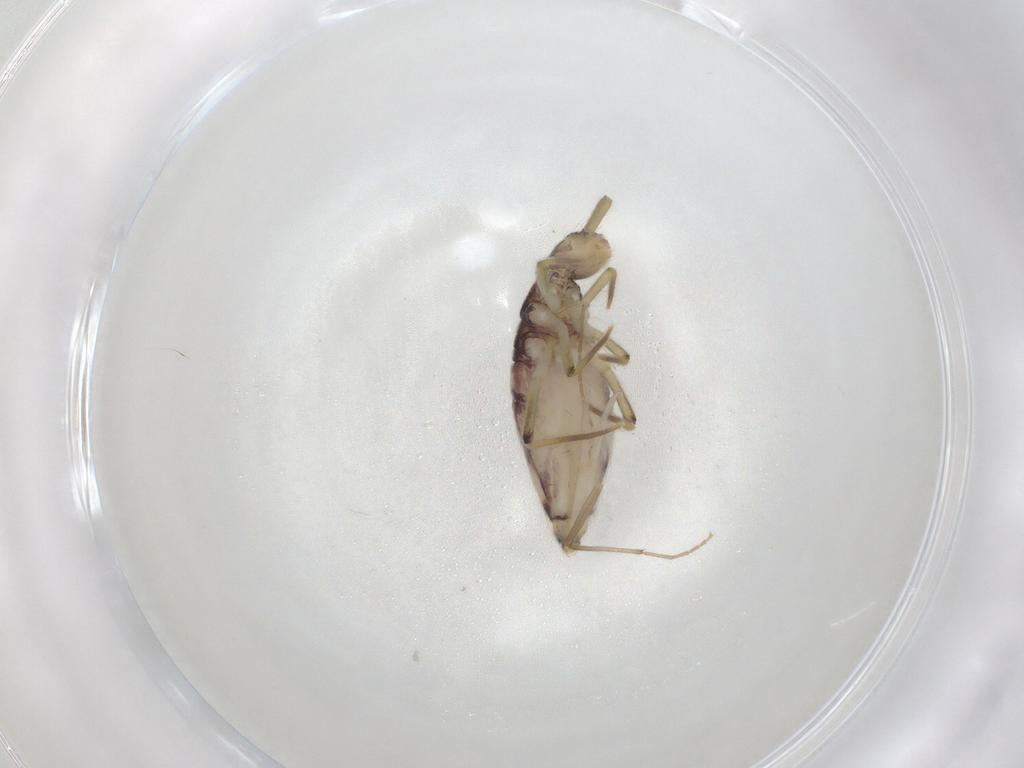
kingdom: Animalia
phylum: Arthropoda
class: Collembola
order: Entomobryomorpha
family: Entomobryidae
